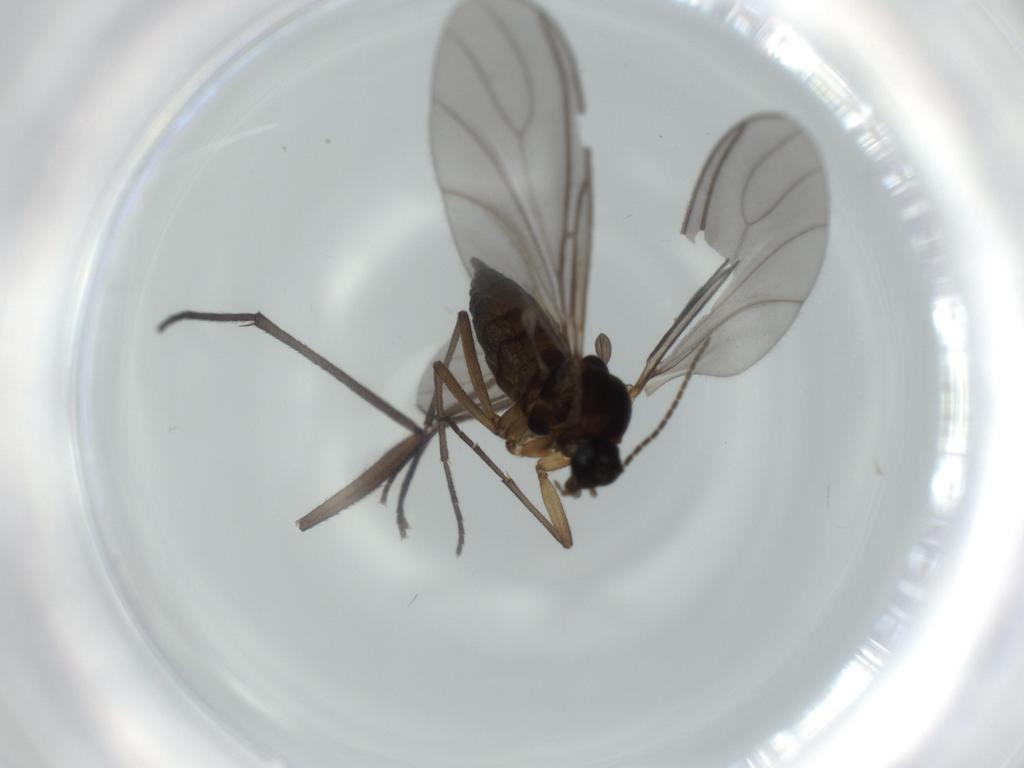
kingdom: Animalia
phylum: Arthropoda
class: Insecta
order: Diptera
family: Sciaridae
